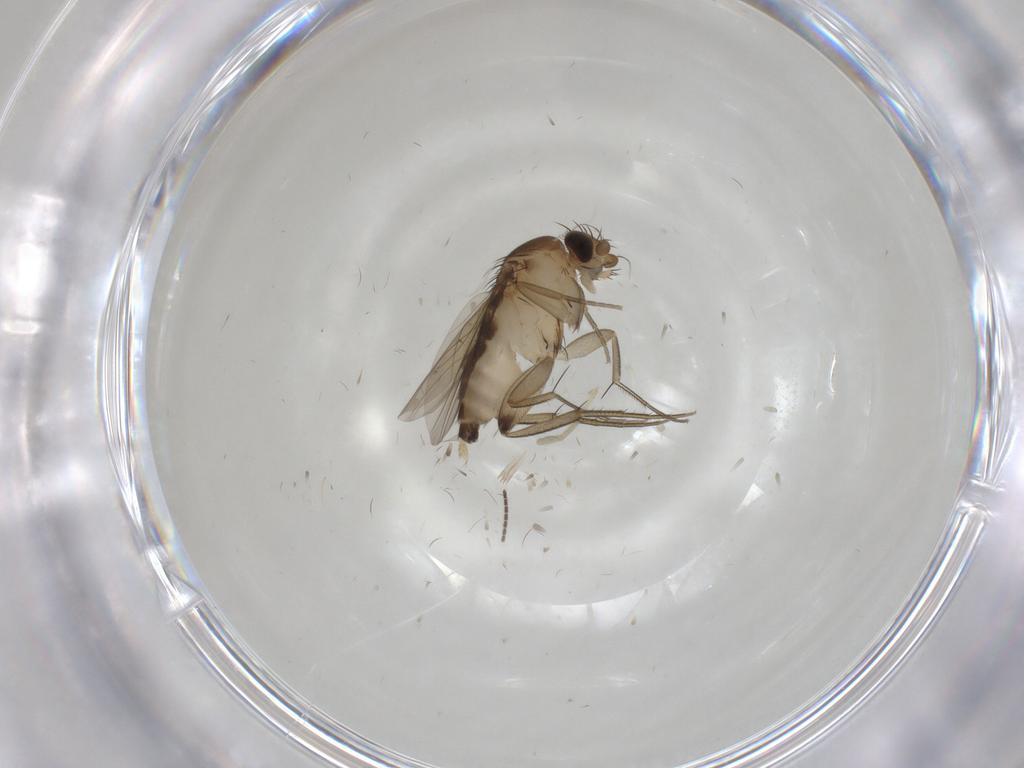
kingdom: Animalia
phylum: Arthropoda
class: Insecta
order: Diptera
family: Phoridae
